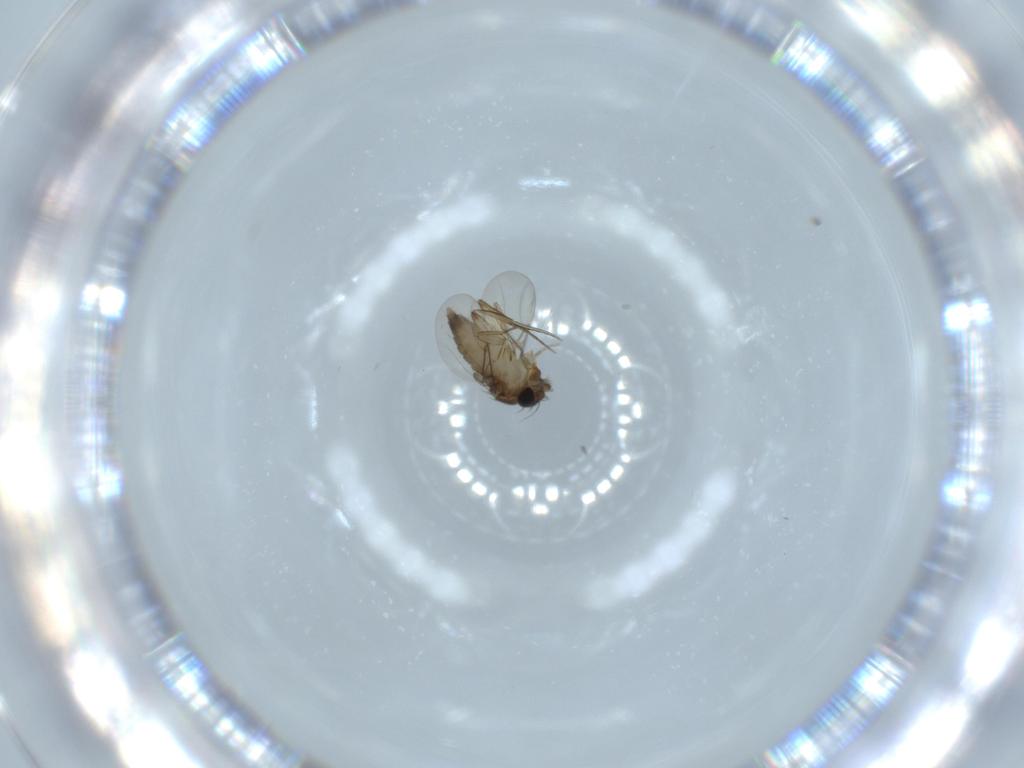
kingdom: Animalia
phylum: Arthropoda
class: Insecta
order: Diptera
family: Phoridae
